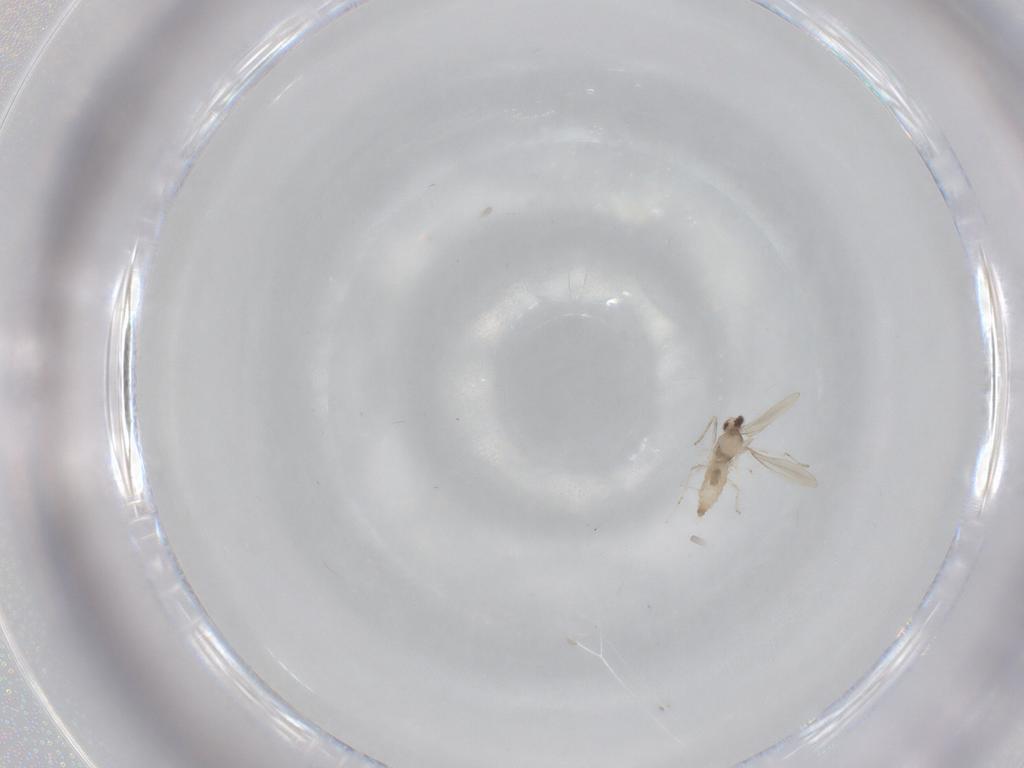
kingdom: Animalia
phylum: Arthropoda
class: Insecta
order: Diptera
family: Cecidomyiidae
